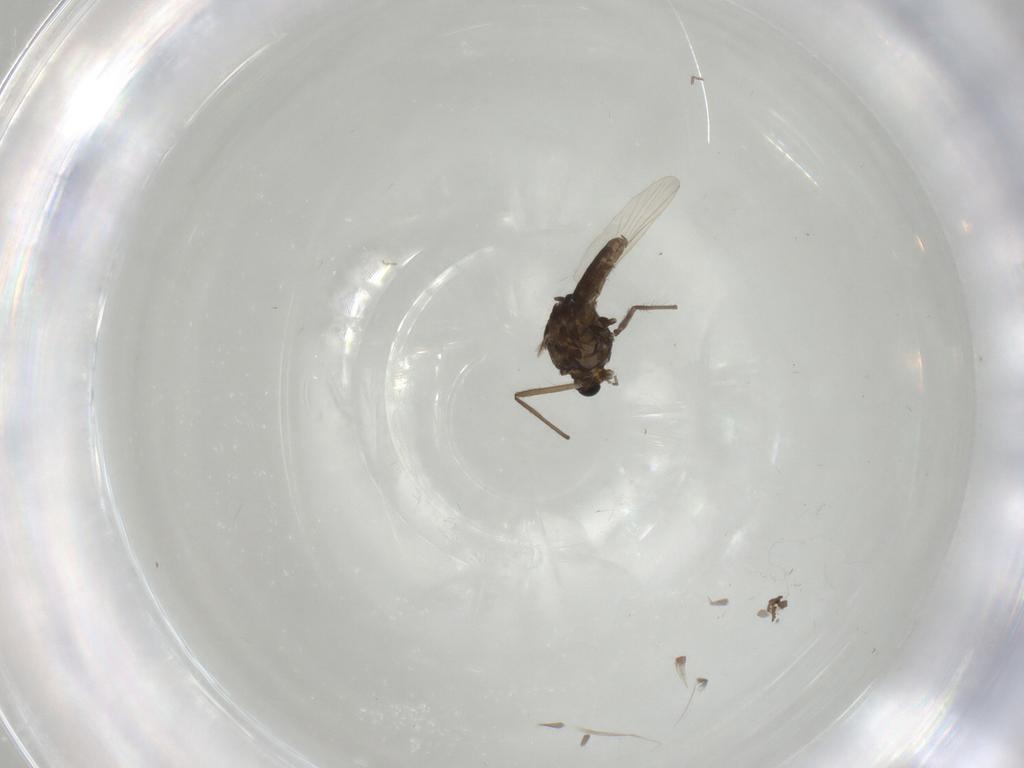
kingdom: Animalia
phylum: Arthropoda
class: Insecta
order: Diptera
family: Chironomidae
